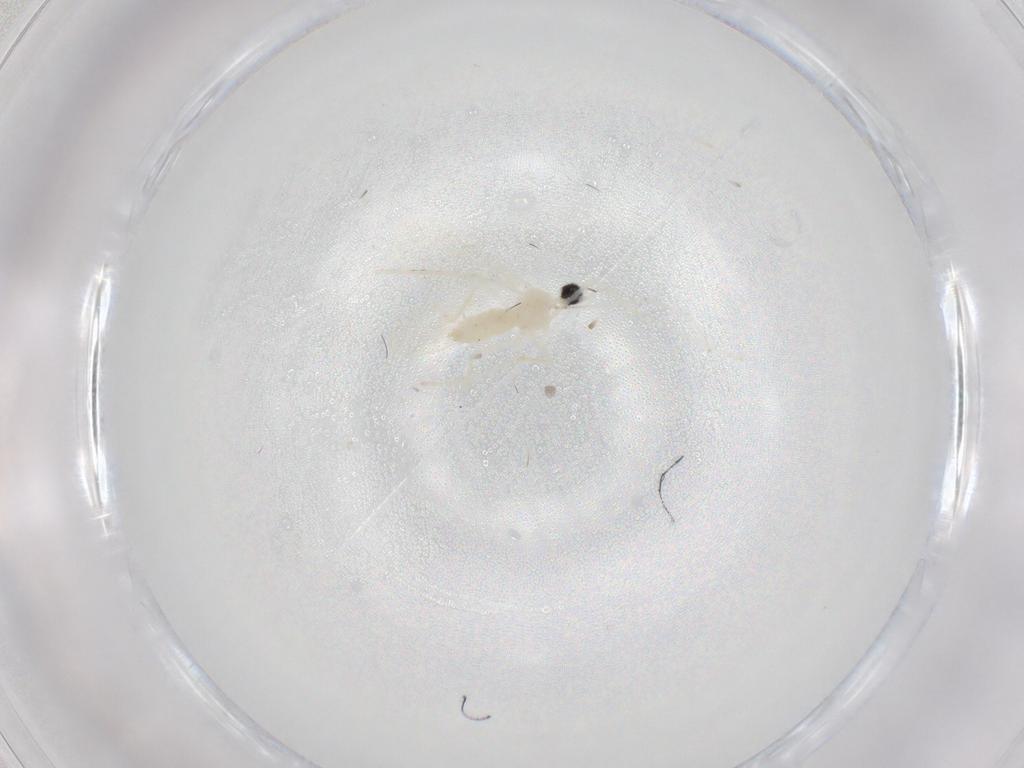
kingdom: Animalia
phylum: Arthropoda
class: Insecta
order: Diptera
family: Cecidomyiidae
